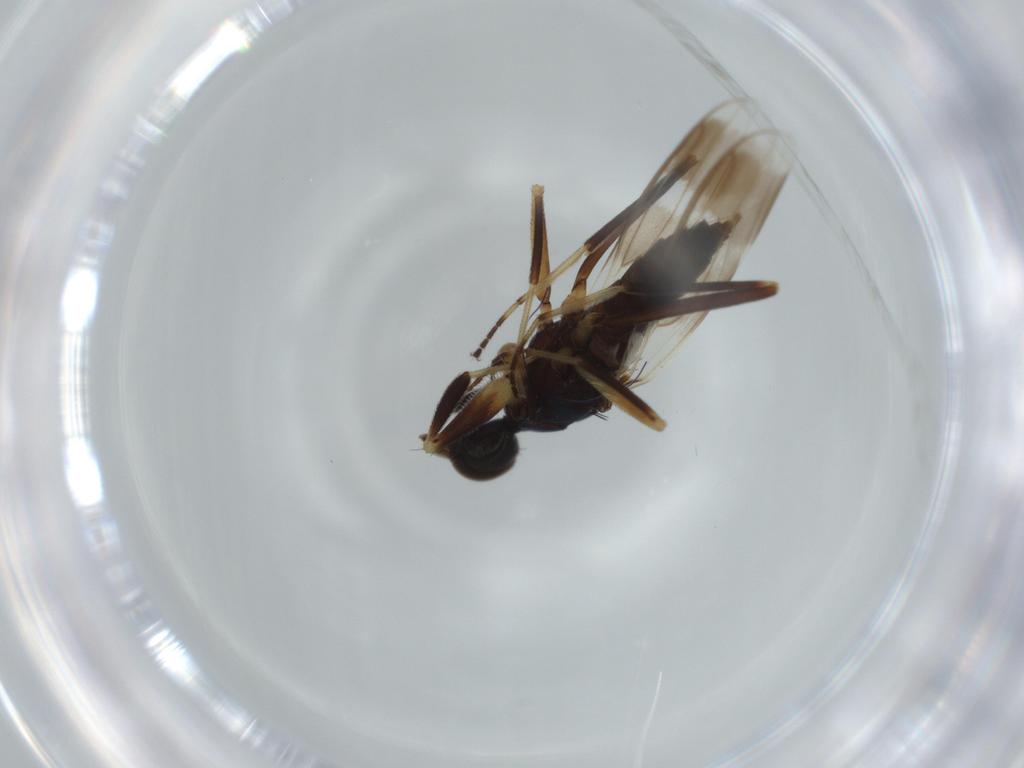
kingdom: Animalia
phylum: Arthropoda
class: Insecta
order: Diptera
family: Hybotidae
